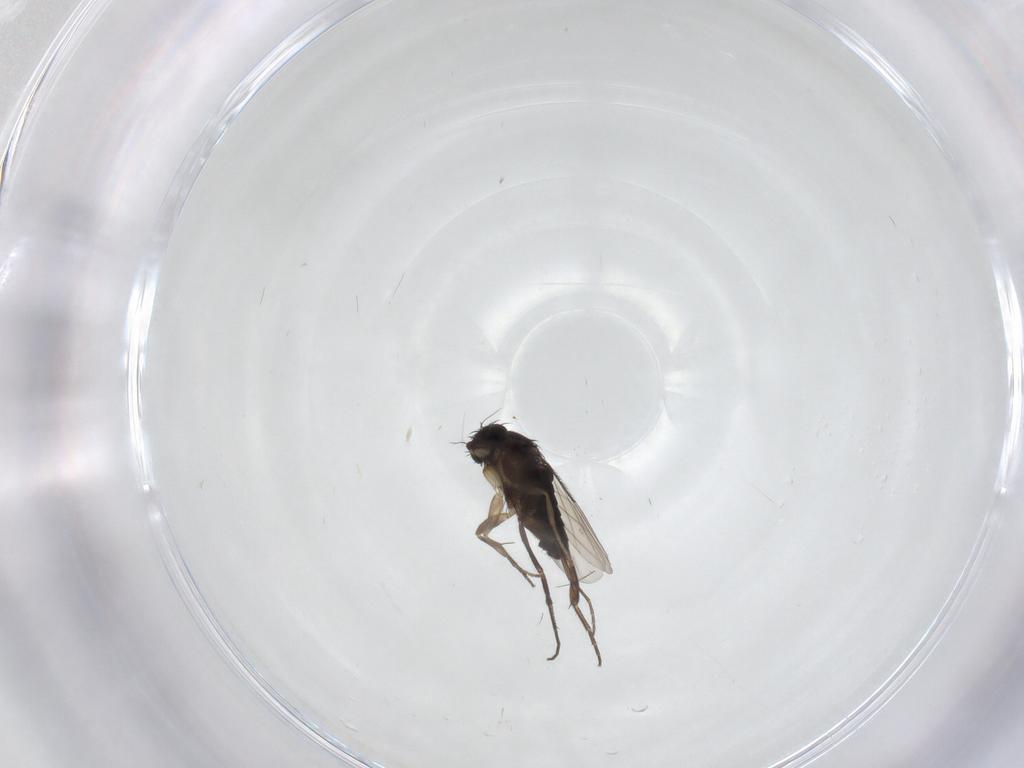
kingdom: Animalia
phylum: Arthropoda
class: Insecta
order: Diptera
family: Phoridae
